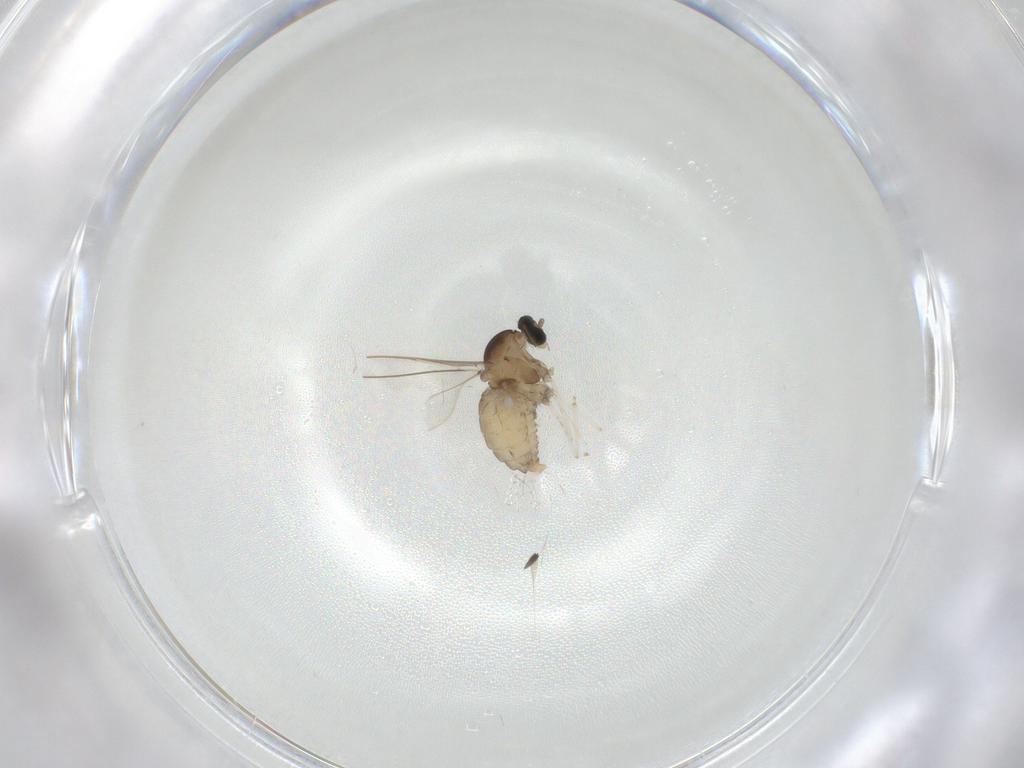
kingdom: Animalia
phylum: Arthropoda
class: Insecta
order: Diptera
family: Cecidomyiidae
